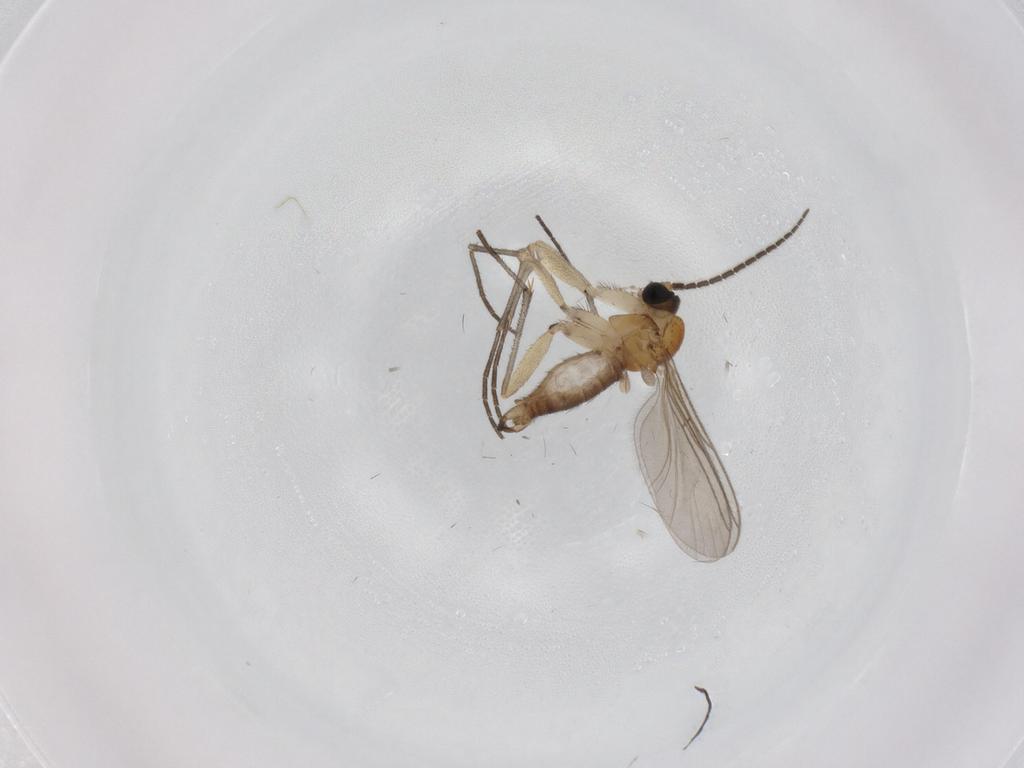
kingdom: Animalia
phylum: Arthropoda
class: Insecta
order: Diptera
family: Sciaridae
